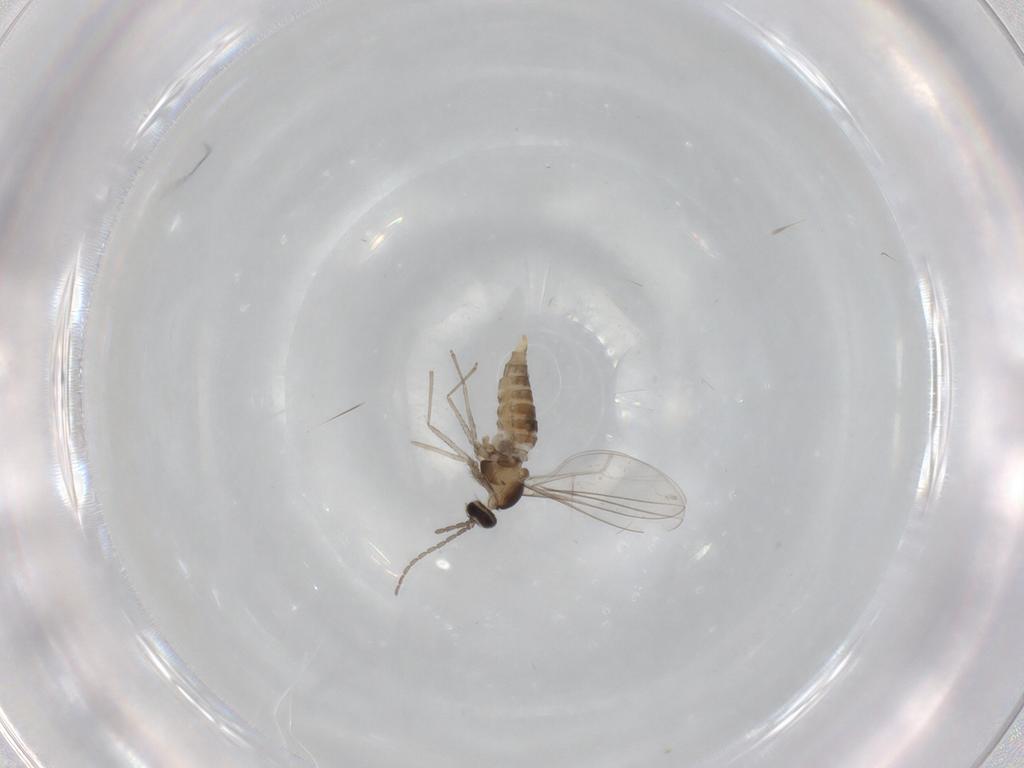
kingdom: Animalia
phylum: Arthropoda
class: Insecta
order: Diptera
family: Cecidomyiidae
